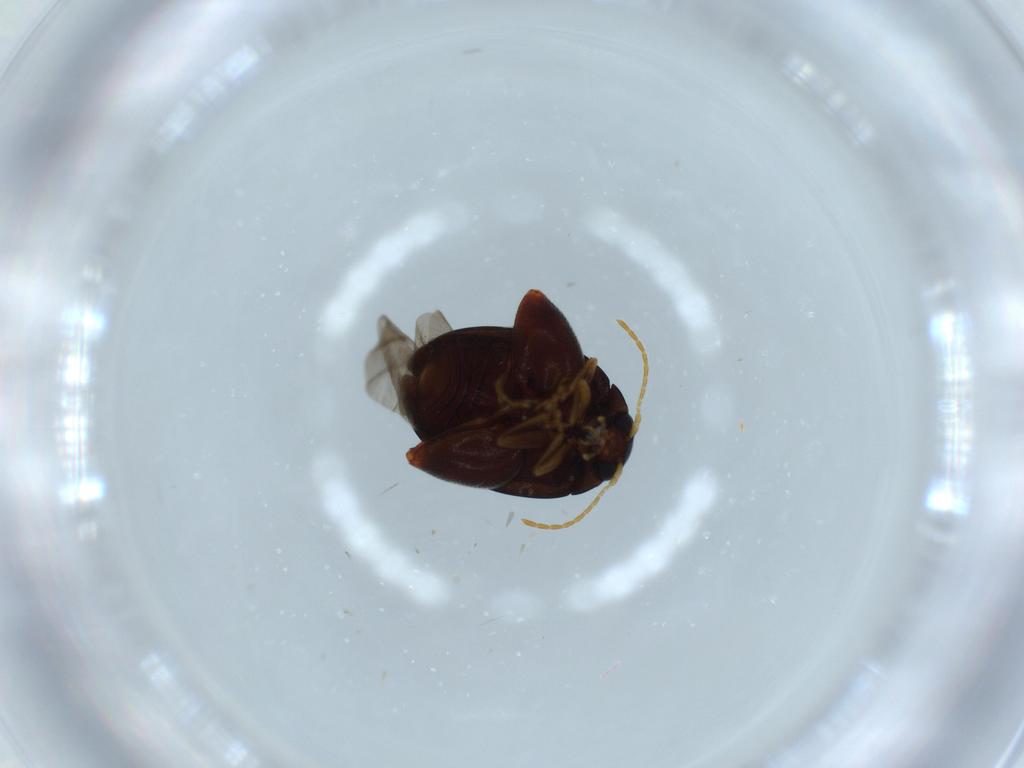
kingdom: Animalia
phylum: Arthropoda
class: Insecta
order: Coleoptera
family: Chrysomelidae
